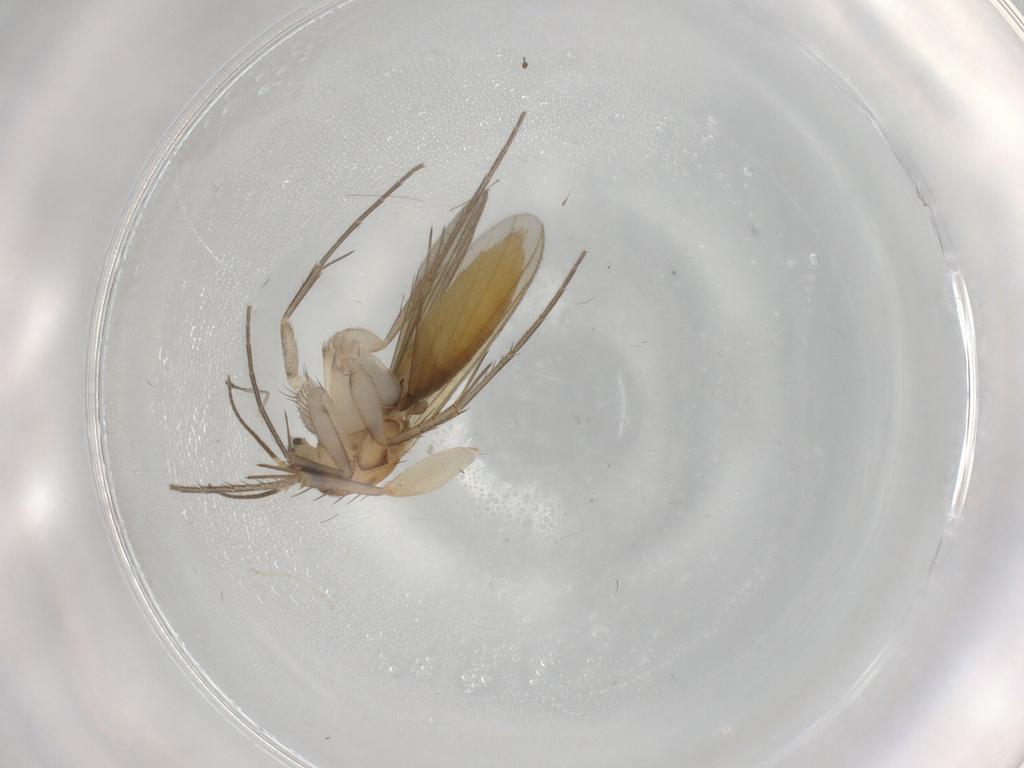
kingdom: Animalia
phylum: Arthropoda
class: Insecta
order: Diptera
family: Mycetophilidae
